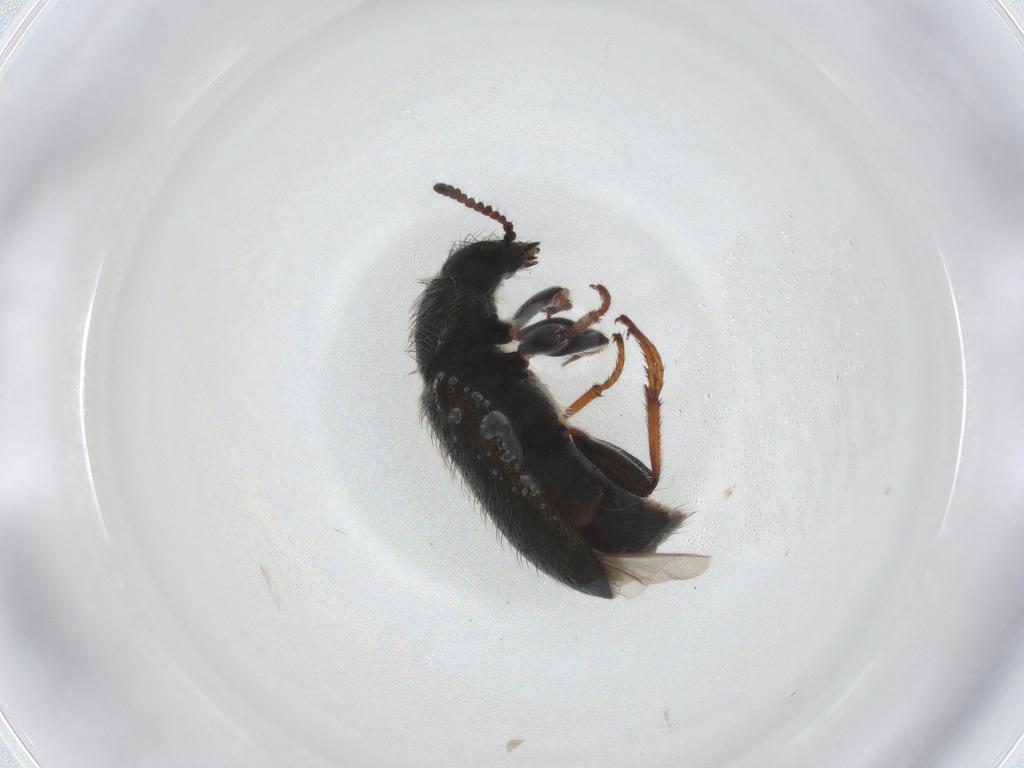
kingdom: Animalia
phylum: Arthropoda
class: Insecta
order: Coleoptera
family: Melyridae
